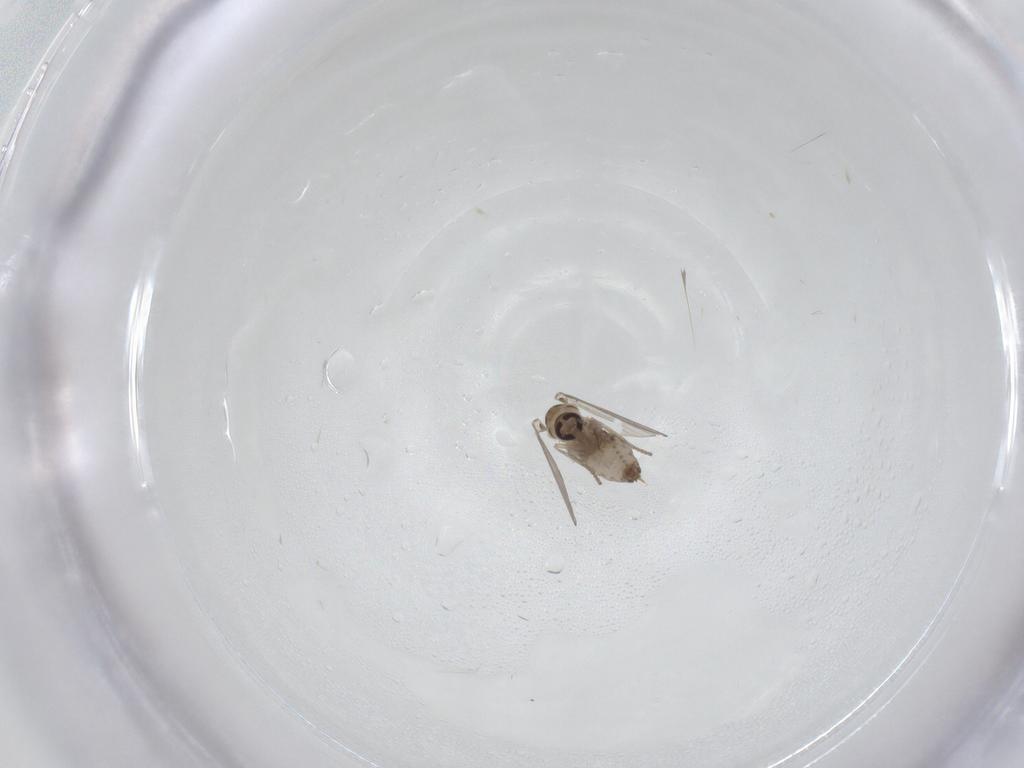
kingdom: Animalia
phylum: Arthropoda
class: Insecta
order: Diptera
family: Psychodidae
